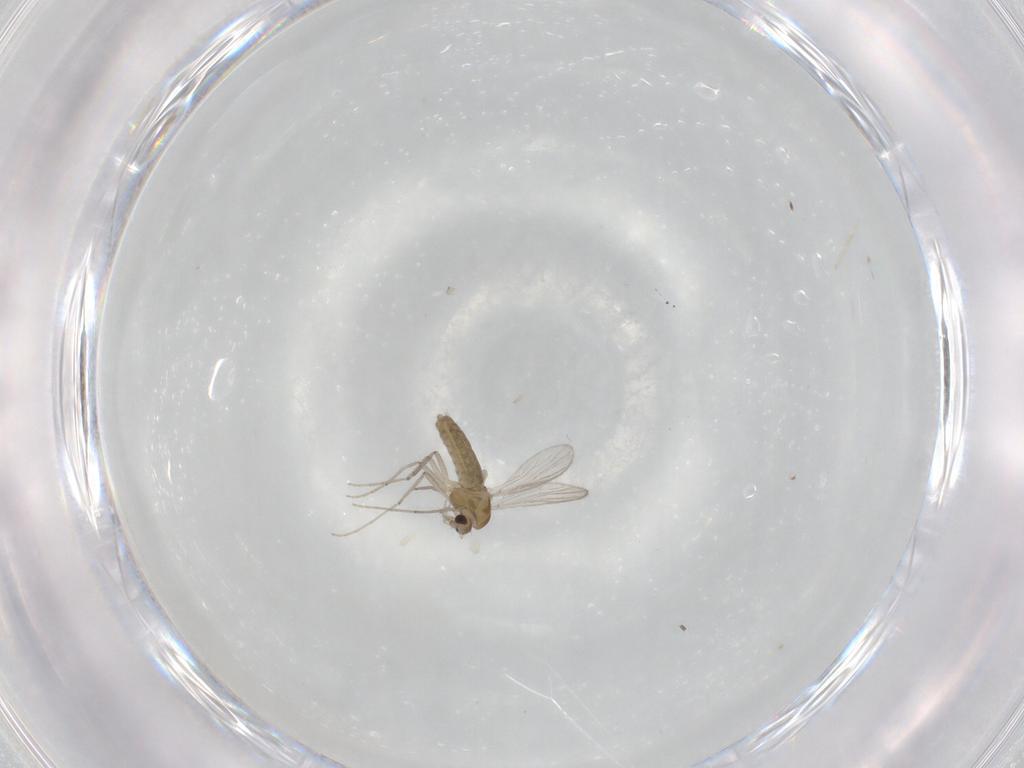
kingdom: Animalia
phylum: Arthropoda
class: Insecta
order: Diptera
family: Chironomidae
